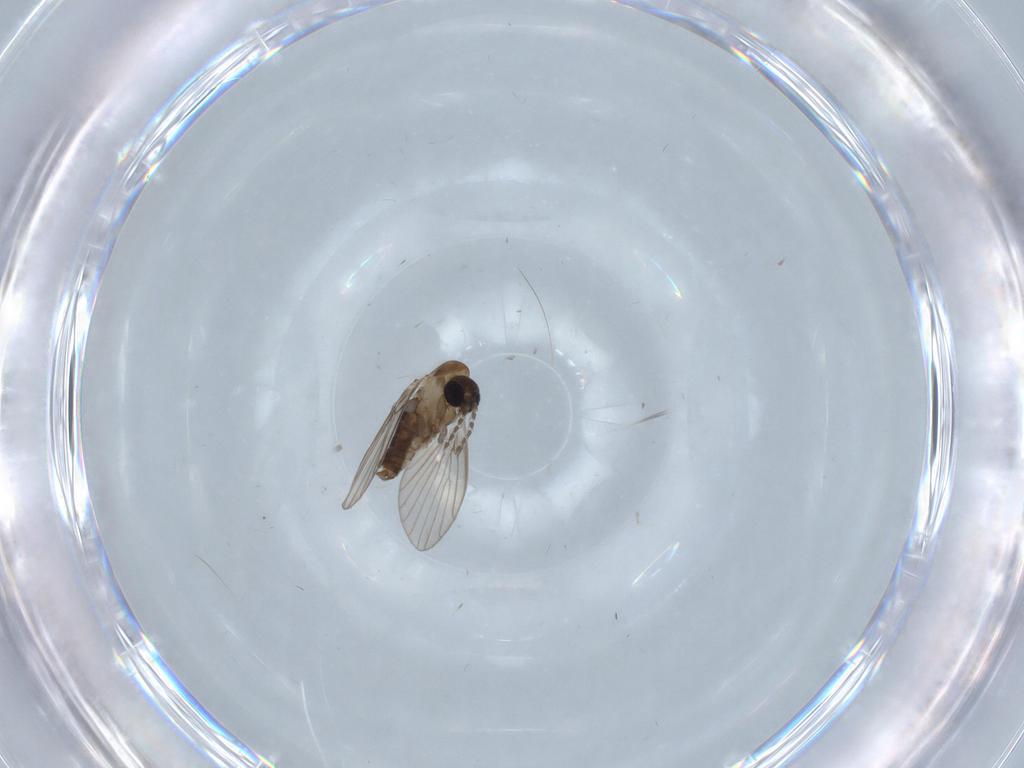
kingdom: Animalia
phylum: Arthropoda
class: Insecta
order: Diptera
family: Psychodidae
